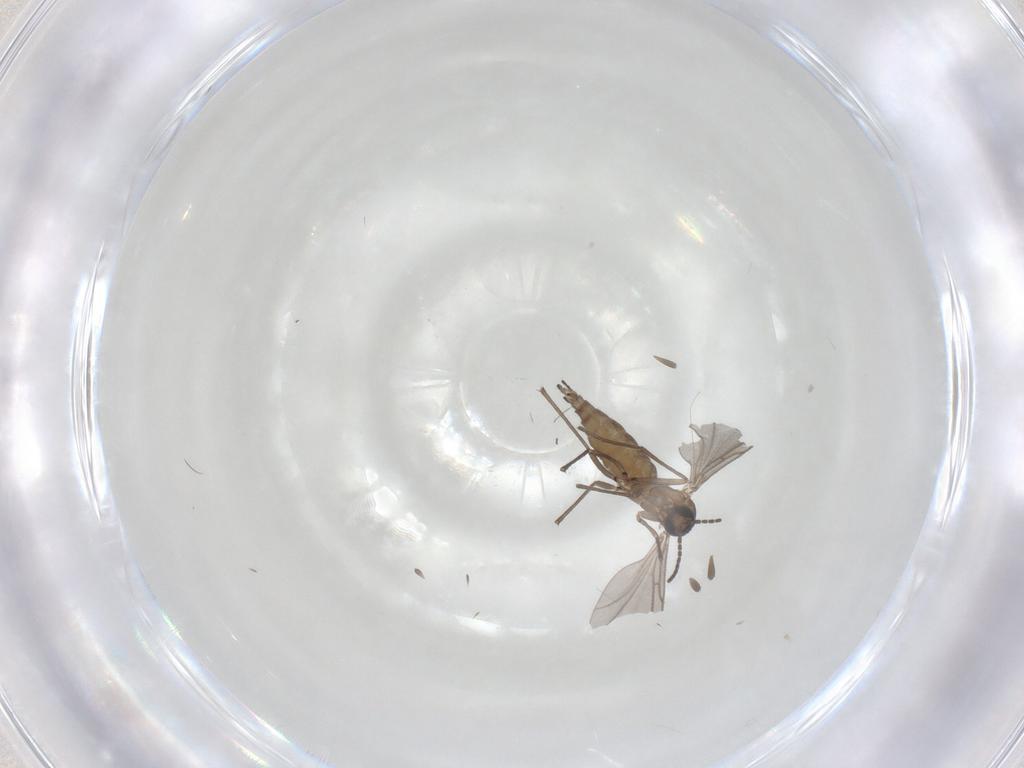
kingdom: Animalia
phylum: Arthropoda
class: Insecta
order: Diptera
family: Sciaridae
